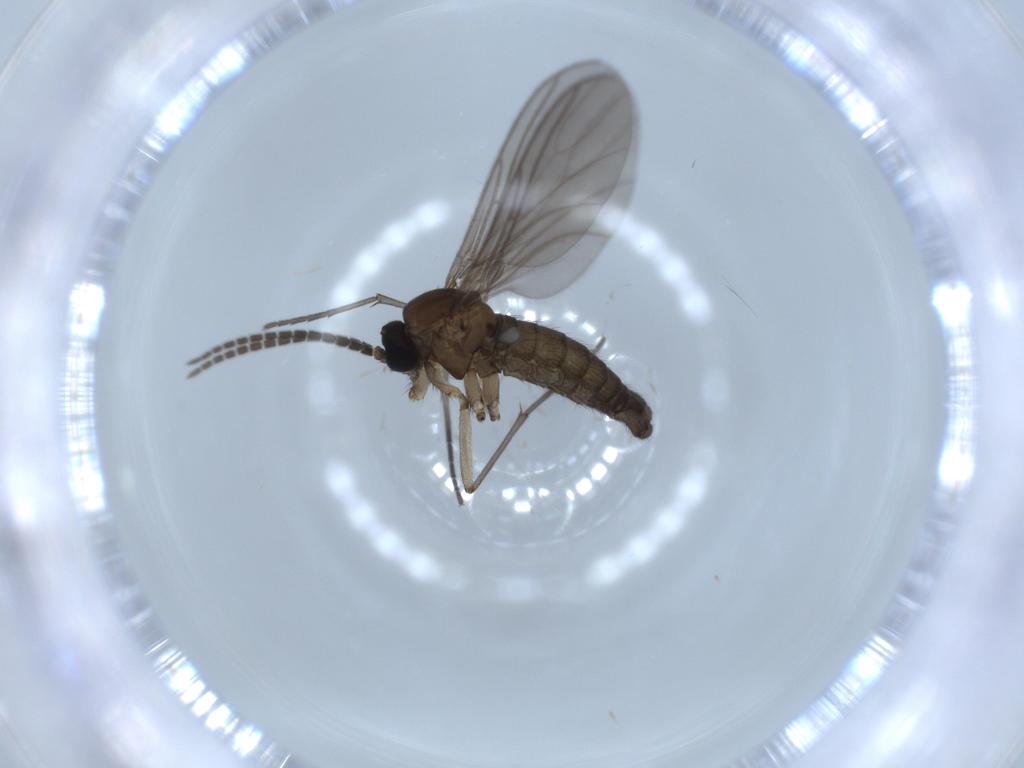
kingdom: Animalia
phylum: Arthropoda
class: Insecta
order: Diptera
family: Sciaridae
